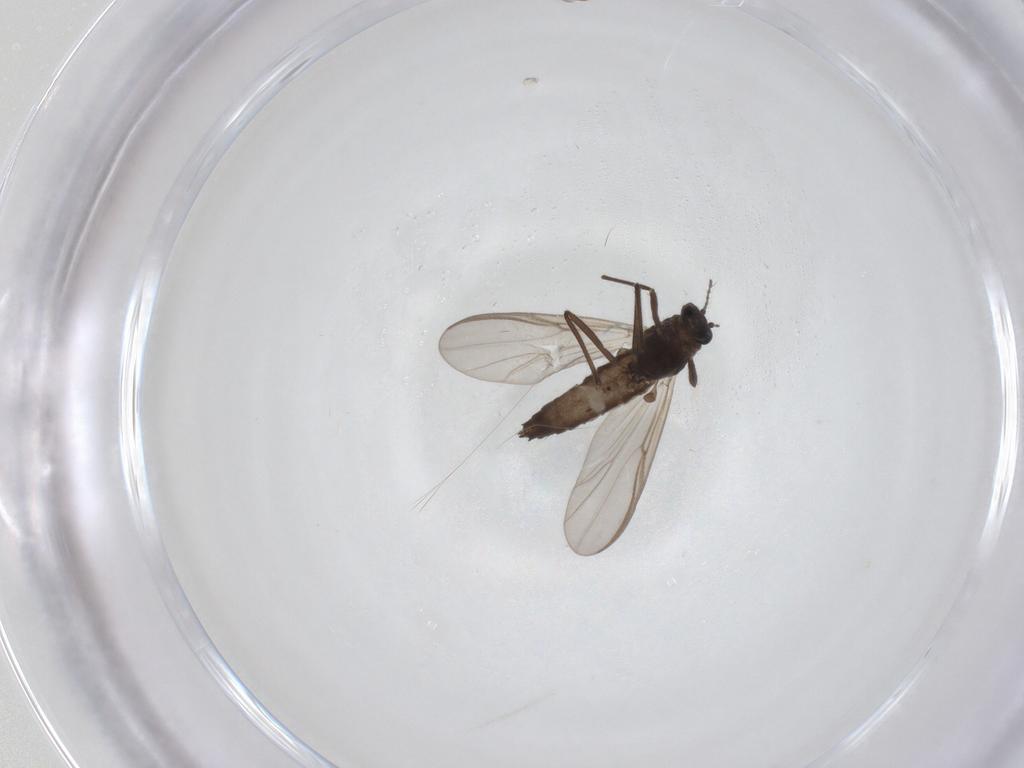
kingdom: Animalia
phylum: Arthropoda
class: Insecta
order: Diptera
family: Chironomidae
